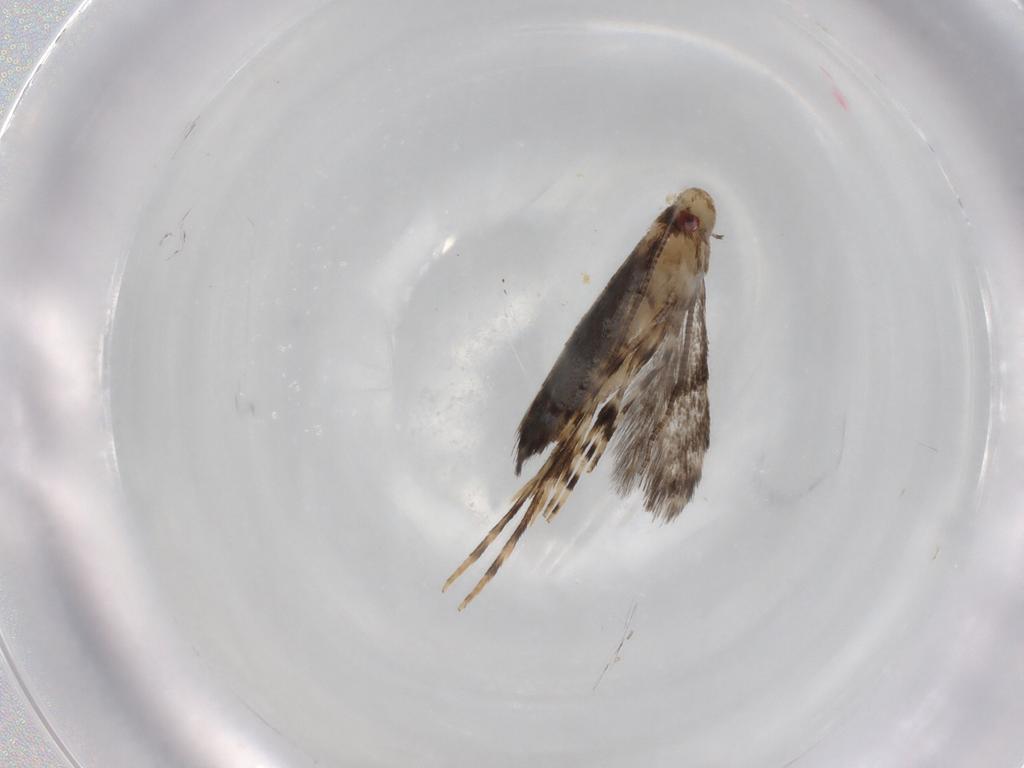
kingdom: Animalia
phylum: Arthropoda
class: Insecta
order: Lepidoptera
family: Gracillariidae
